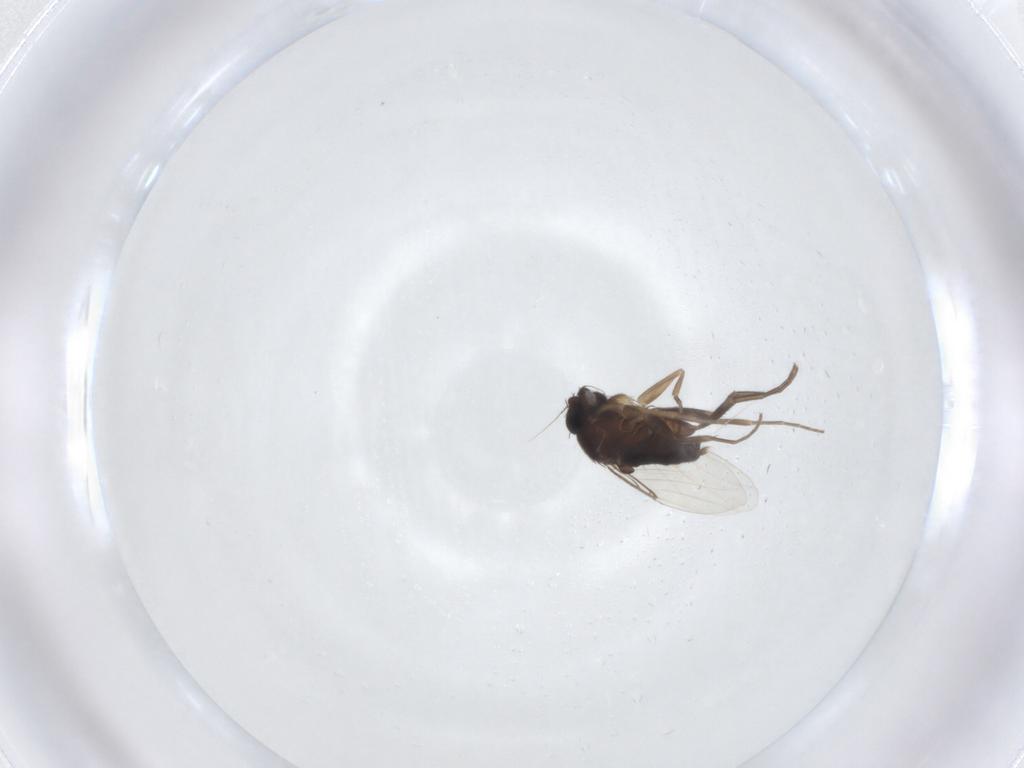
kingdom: Animalia
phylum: Arthropoda
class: Insecta
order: Diptera
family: Phoridae
